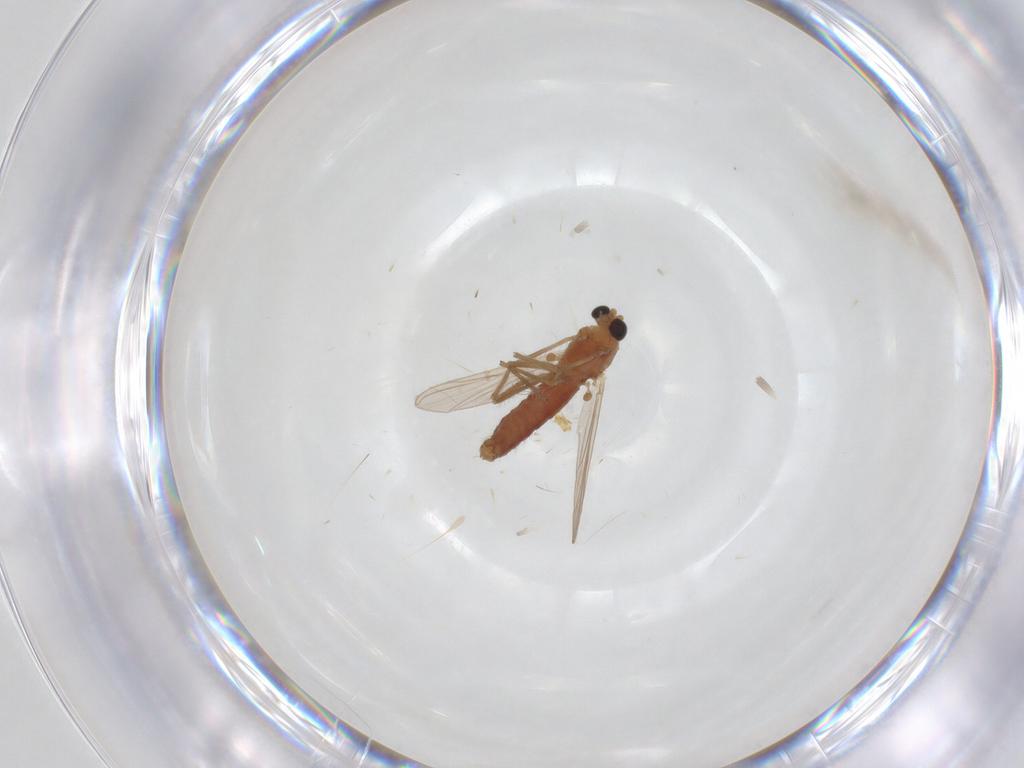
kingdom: Animalia
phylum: Arthropoda
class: Insecta
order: Diptera
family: Chironomidae
